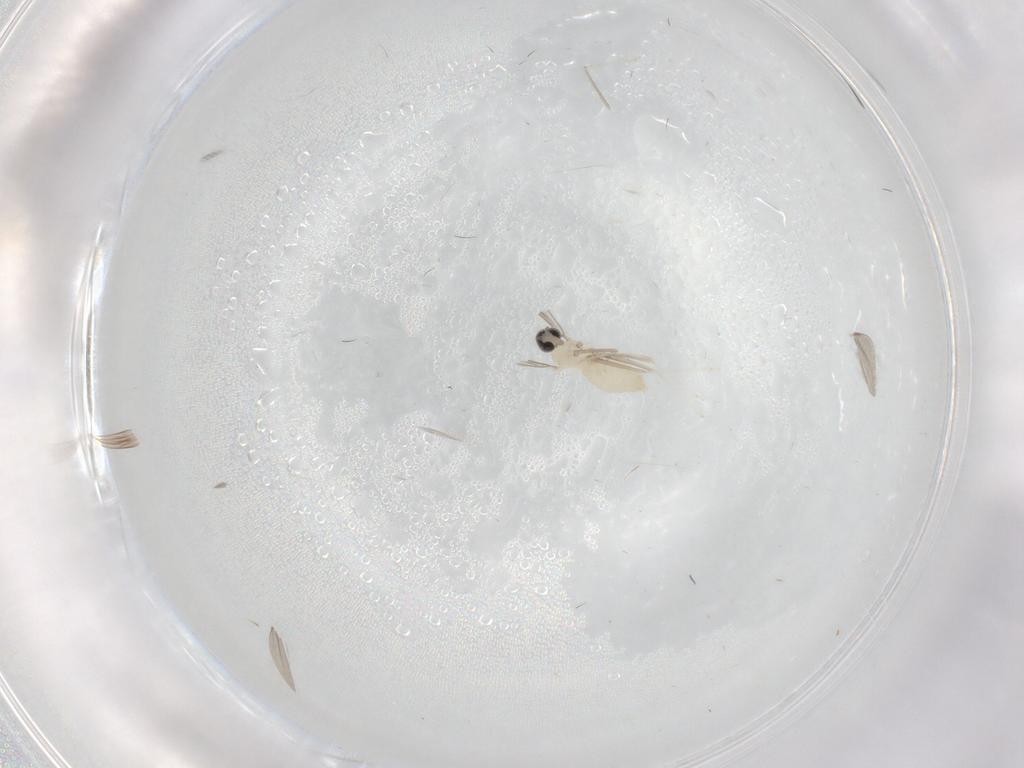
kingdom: Animalia
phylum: Arthropoda
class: Insecta
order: Diptera
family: Cecidomyiidae
